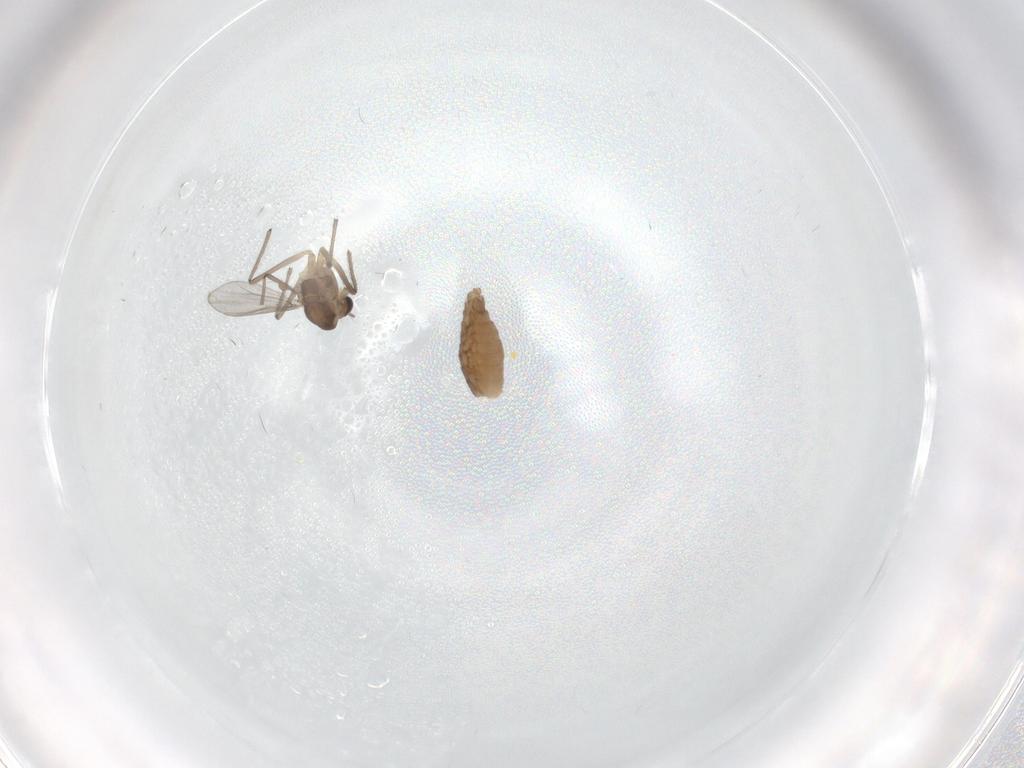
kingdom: Animalia
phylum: Arthropoda
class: Insecta
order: Diptera
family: Chironomidae
